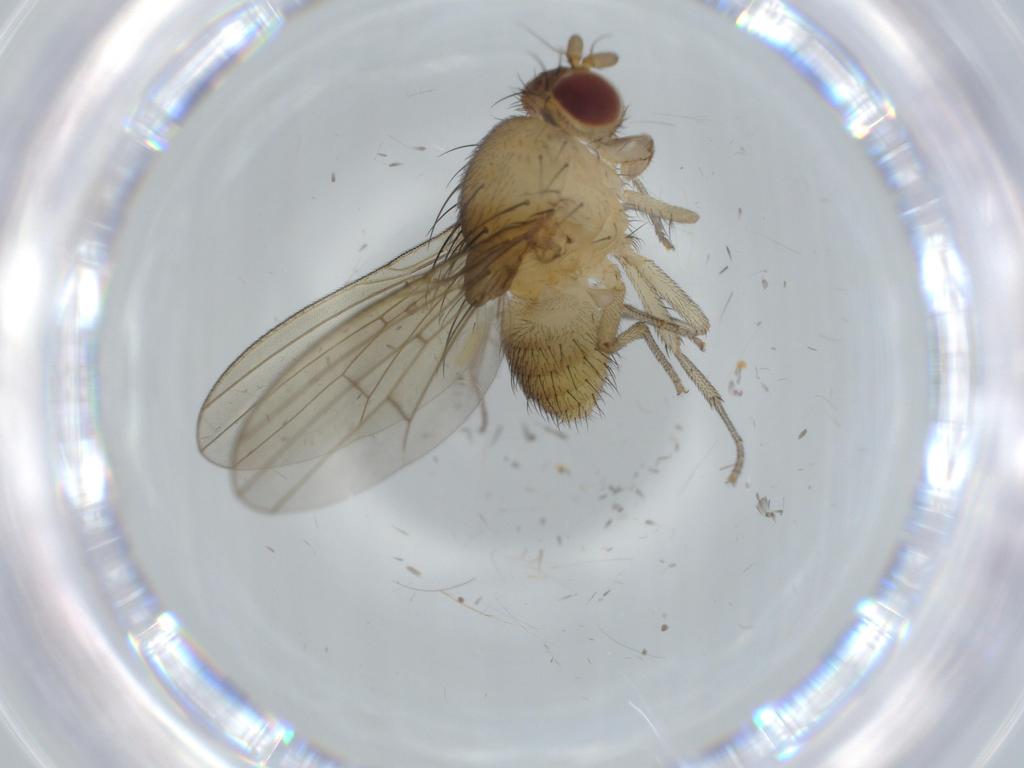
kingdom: Animalia
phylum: Arthropoda
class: Insecta
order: Diptera
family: Agromyzidae
